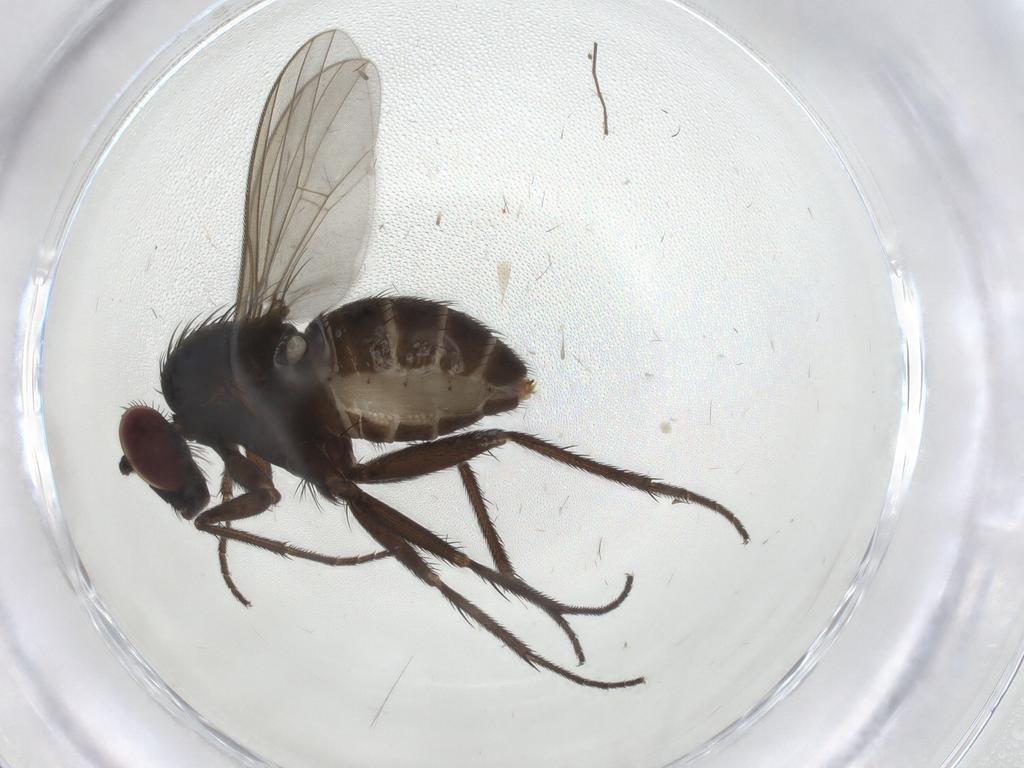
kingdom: Animalia
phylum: Arthropoda
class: Insecta
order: Diptera
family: Dolichopodidae
